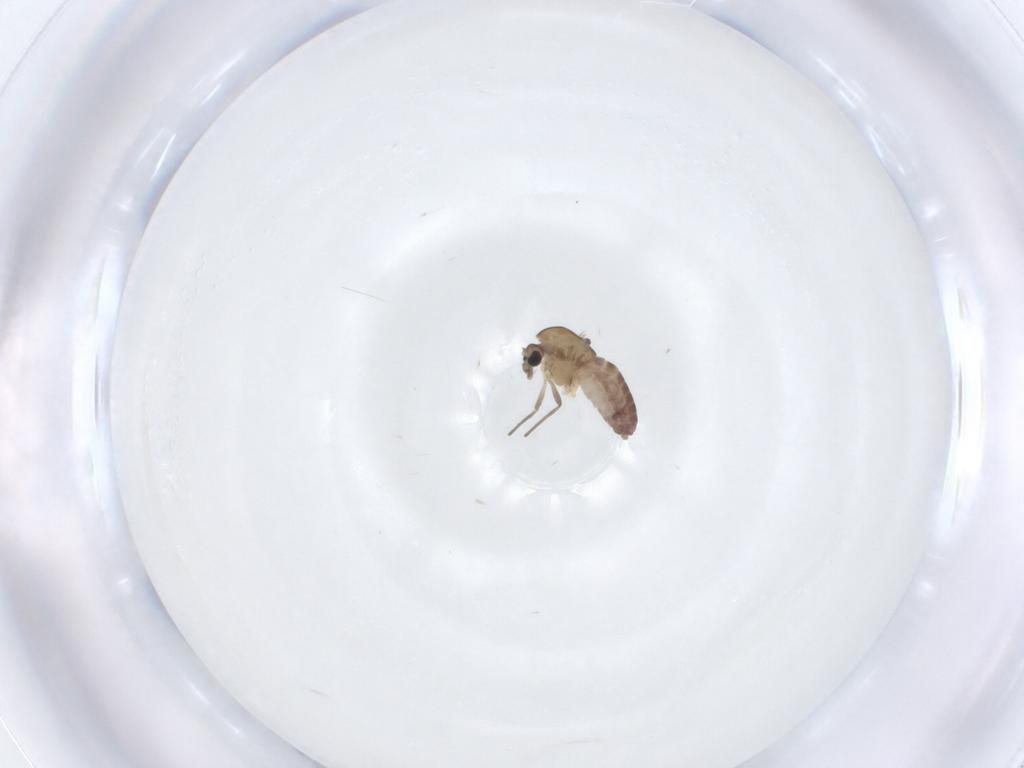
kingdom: Animalia
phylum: Arthropoda
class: Insecta
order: Diptera
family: Chironomidae
